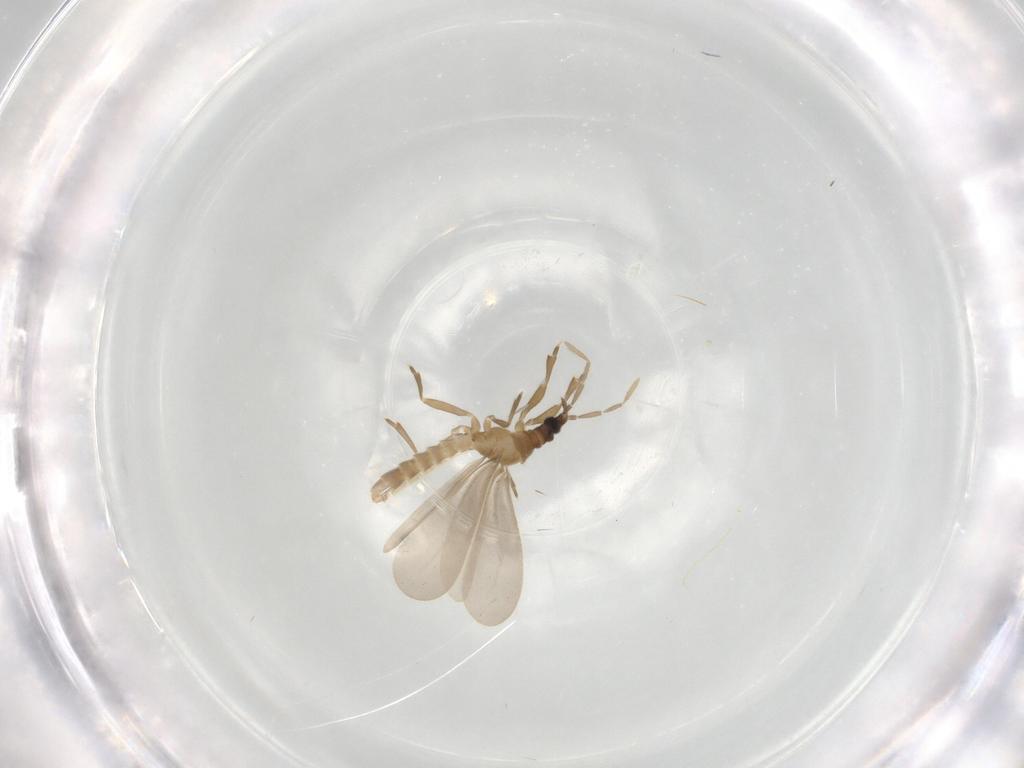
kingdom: Animalia
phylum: Arthropoda
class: Insecta
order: Hemiptera
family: Enicocephalidae
